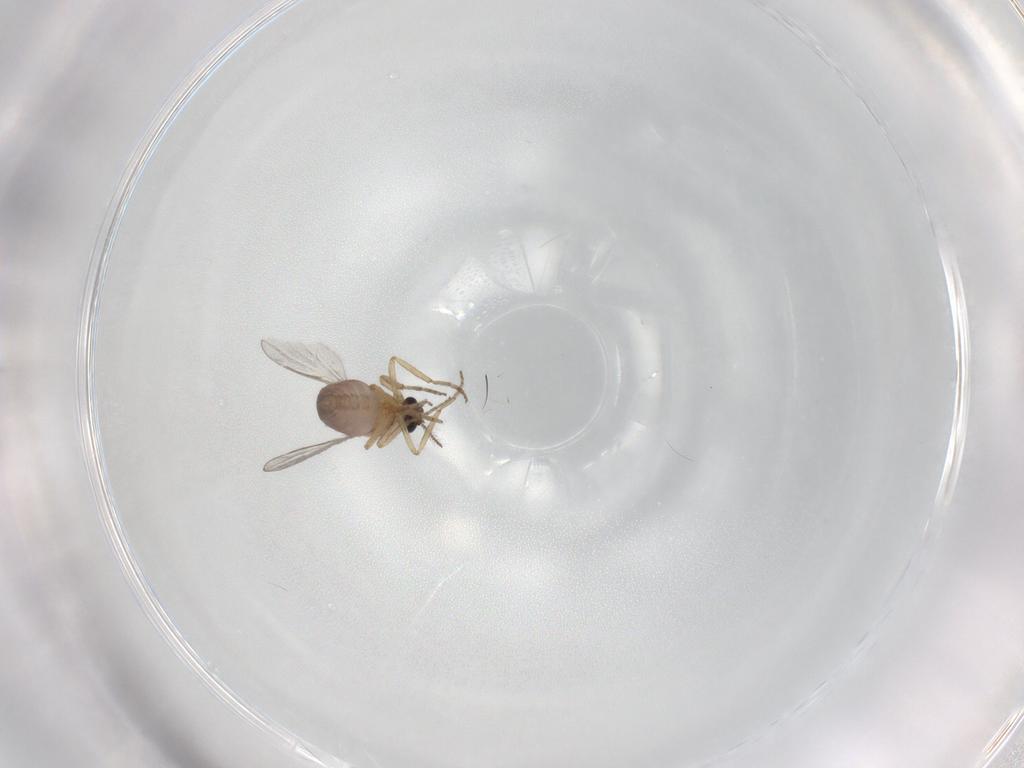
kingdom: Animalia
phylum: Arthropoda
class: Insecta
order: Diptera
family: Ceratopogonidae
